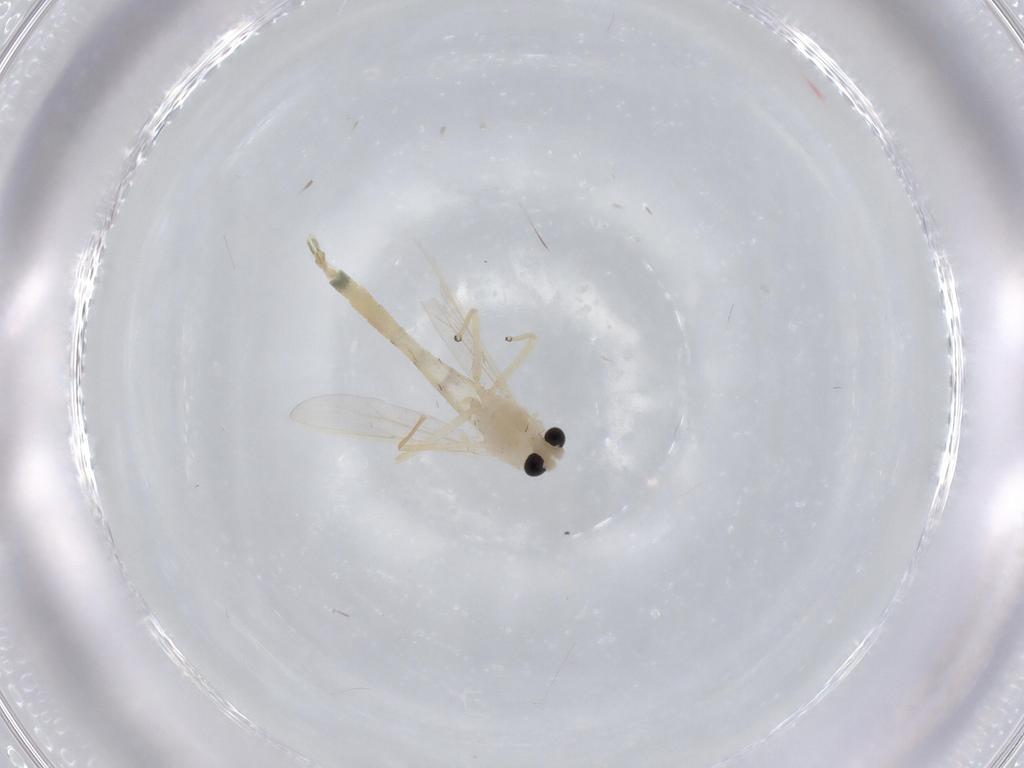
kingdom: Animalia
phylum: Arthropoda
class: Insecta
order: Diptera
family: Chironomidae
